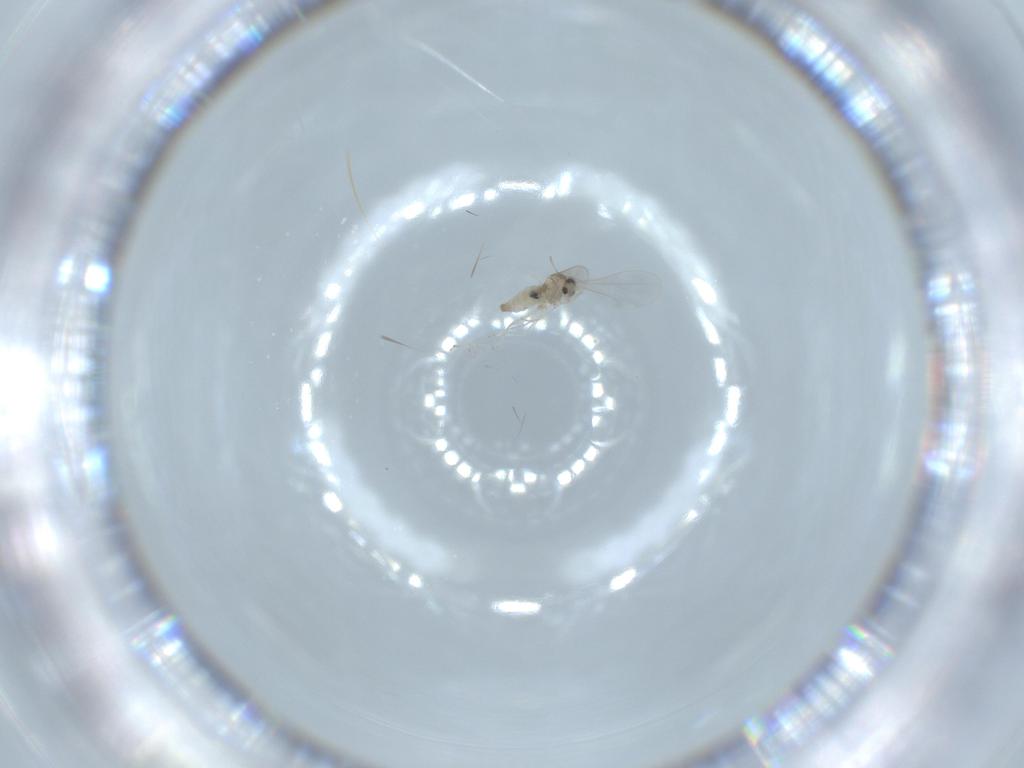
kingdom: Animalia
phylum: Arthropoda
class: Insecta
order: Diptera
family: Cecidomyiidae
